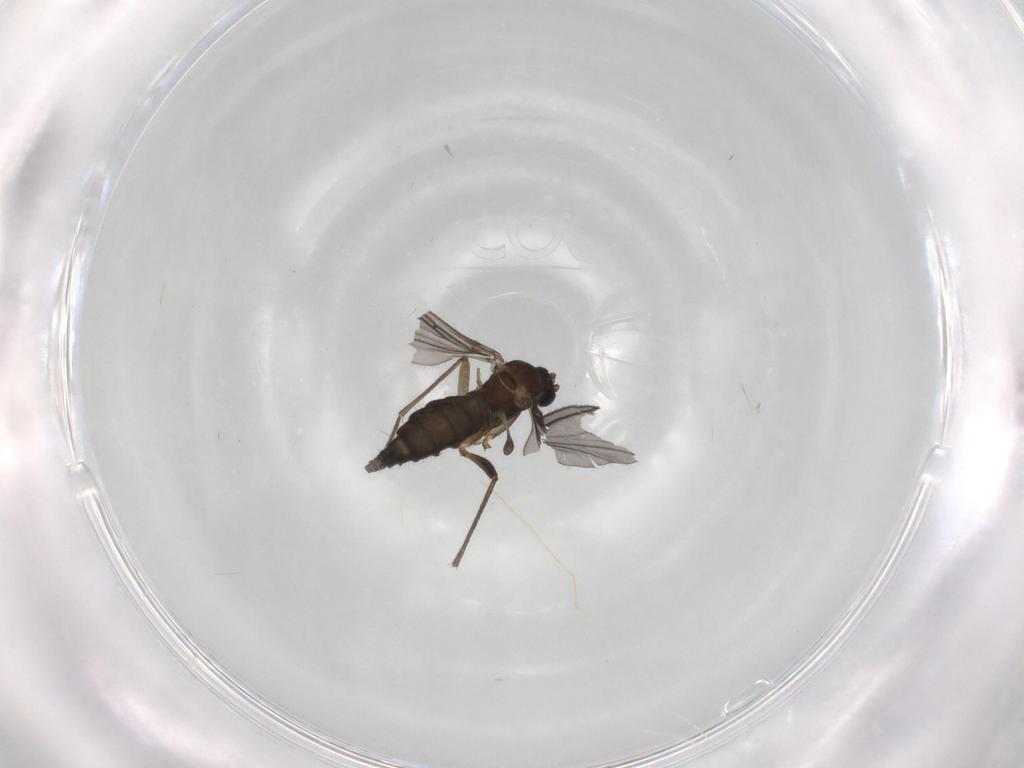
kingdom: Animalia
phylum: Arthropoda
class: Insecta
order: Diptera
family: Sciaridae
